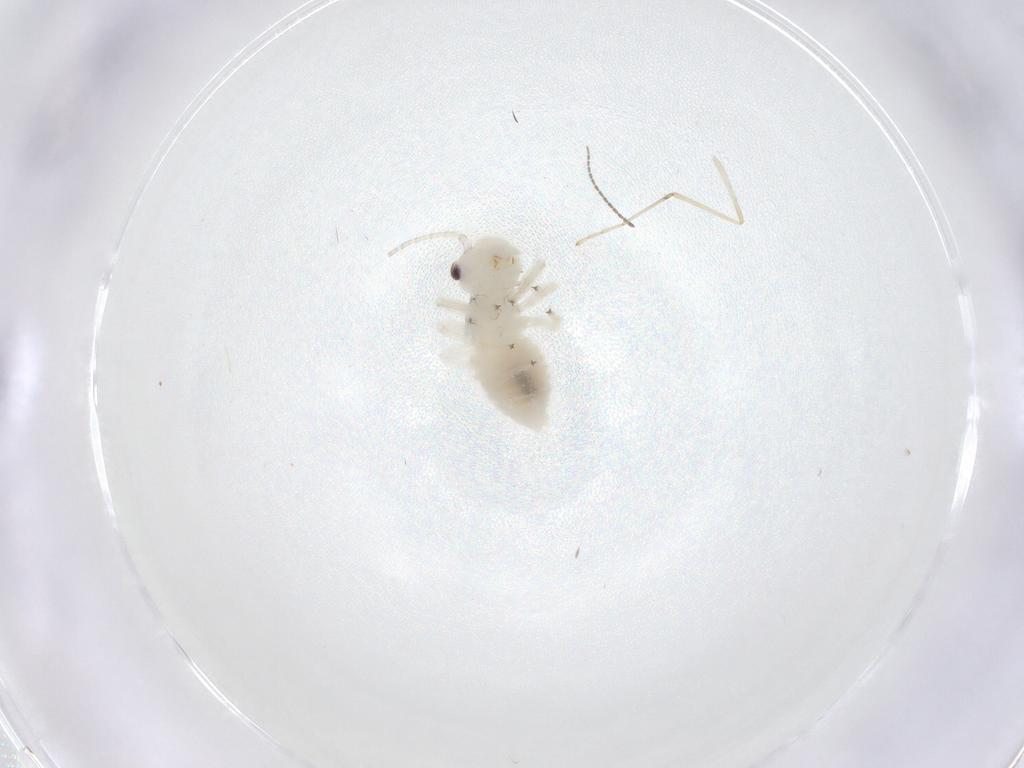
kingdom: Animalia
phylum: Arthropoda
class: Insecta
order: Psocodea
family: Amphipsocidae
